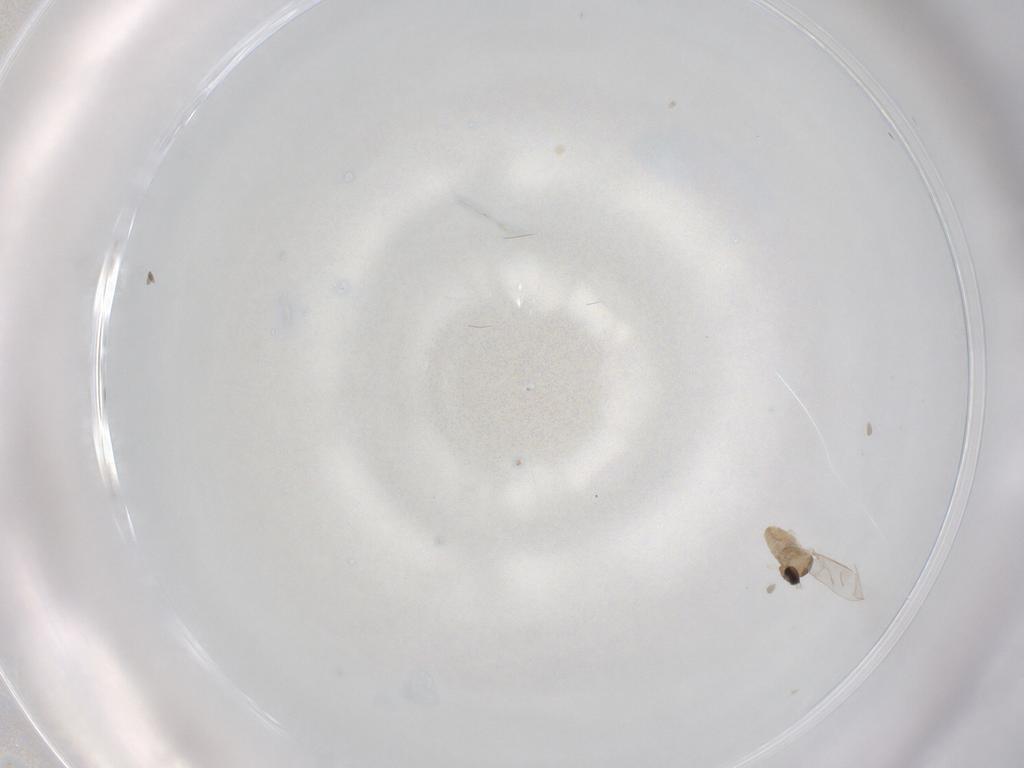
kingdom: Animalia
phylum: Arthropoda
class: Insecta
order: Diptera
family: Cecidomyiidae
